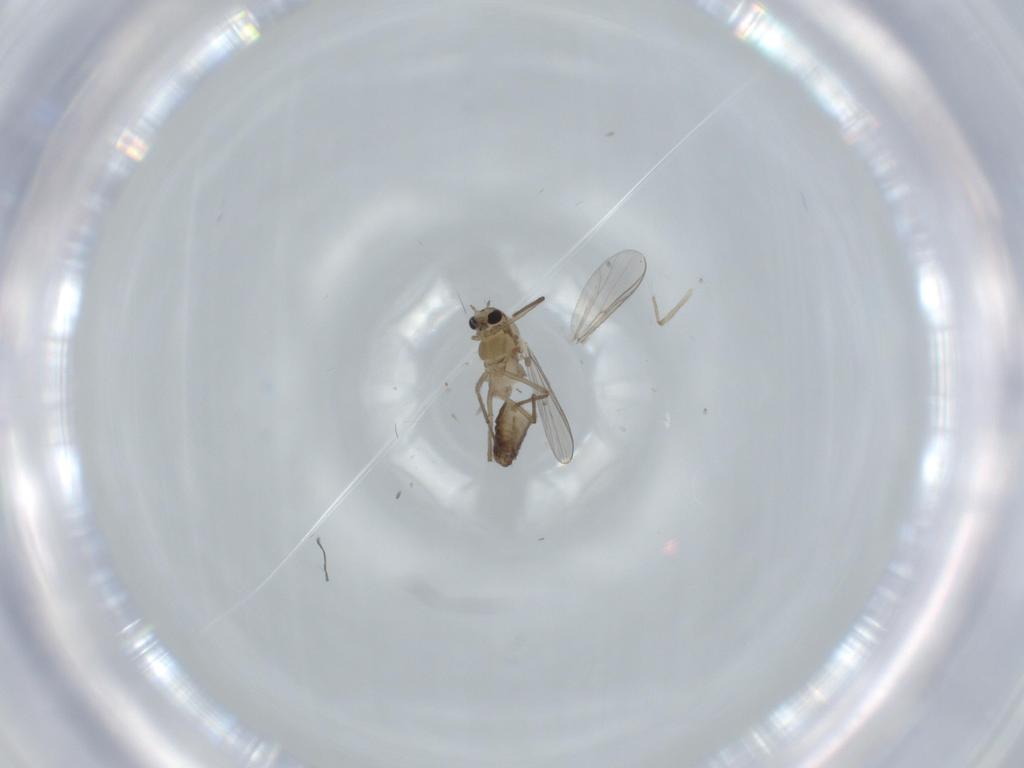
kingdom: Animalia
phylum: Arthropoda
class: Insecta
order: Diptera
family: Chironomidae
